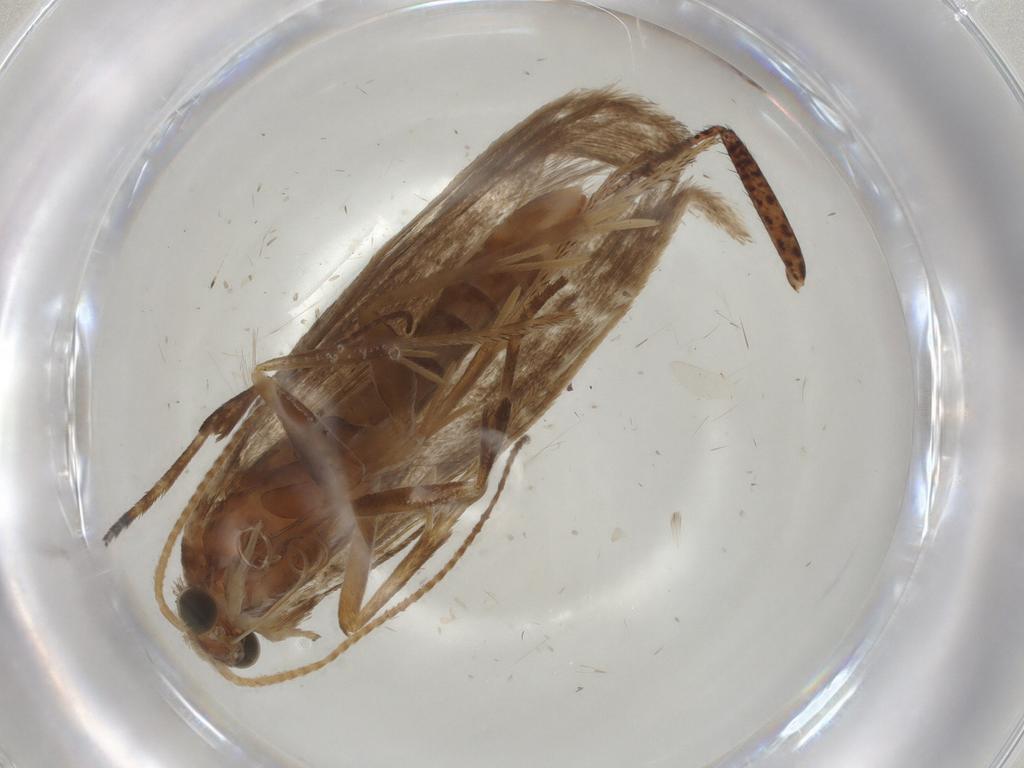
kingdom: Animalia
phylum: Arthropoda
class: Insecta
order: Lepidoptera
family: Plutellidae
